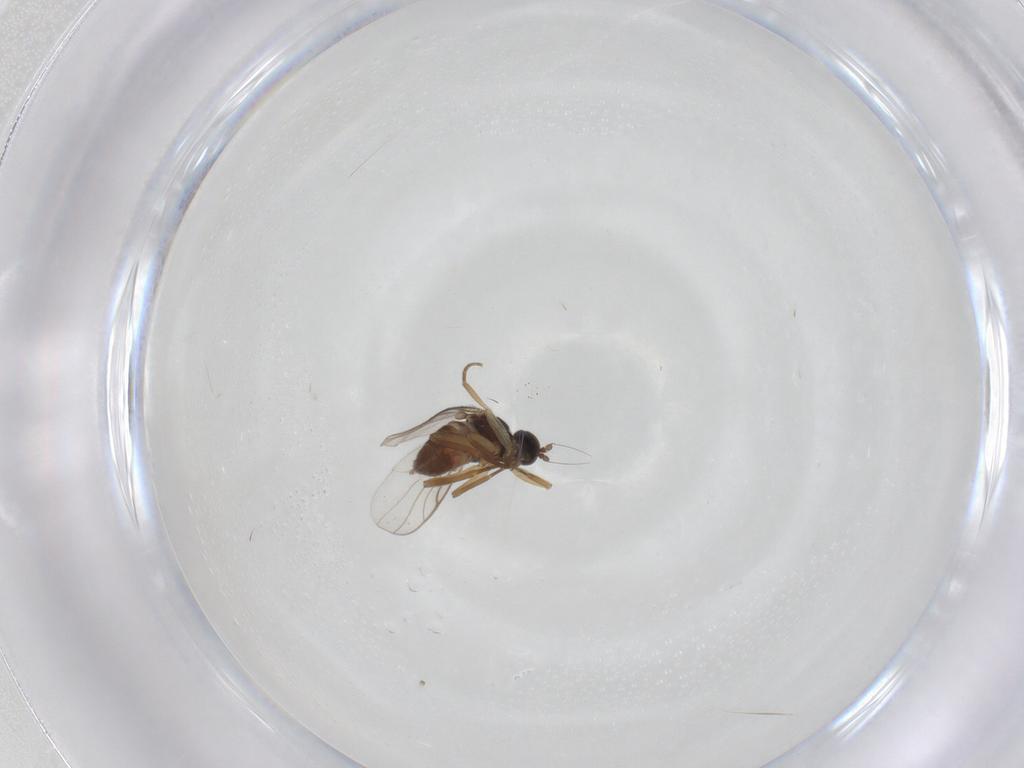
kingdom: Animalia
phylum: Arthropoda
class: Insecta
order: Diptera
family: Hybotidae
